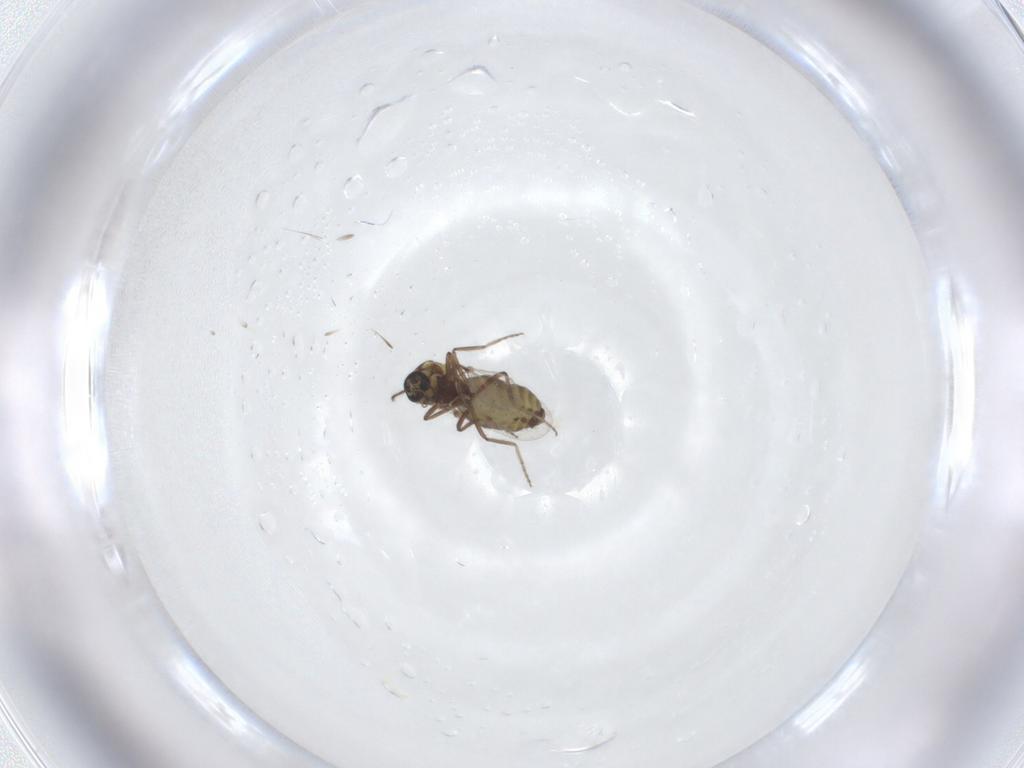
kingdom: Animalia
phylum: Arthropoda
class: Insecta
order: Diptera
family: Ceratopogonidae
